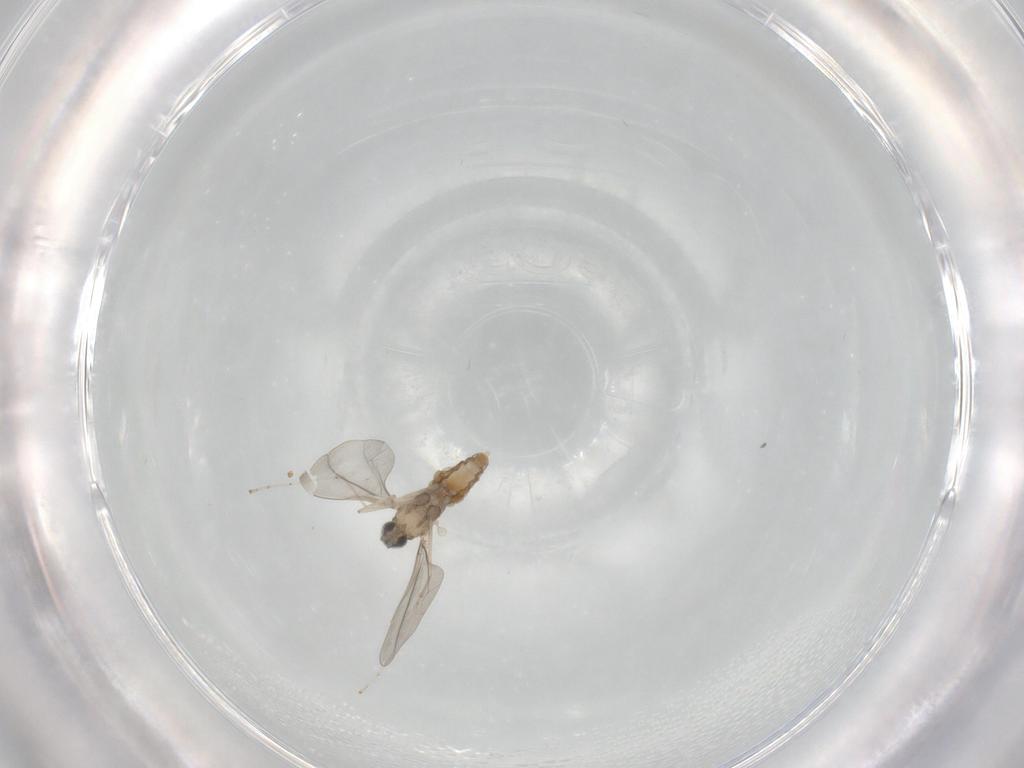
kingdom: Animalia
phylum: Arthropoda
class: Insecta
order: Diptera
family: Cecidomyiidae
